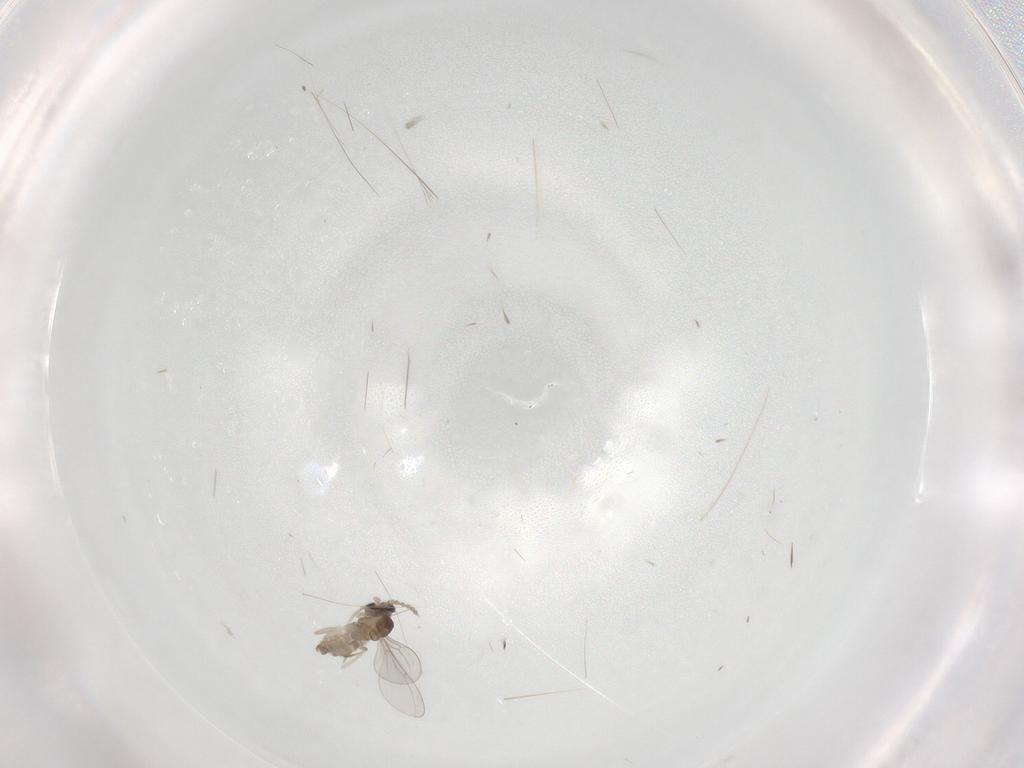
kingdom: Animalia
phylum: Arthropoda
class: Insecta
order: Diptera
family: Cecidomyiidae
